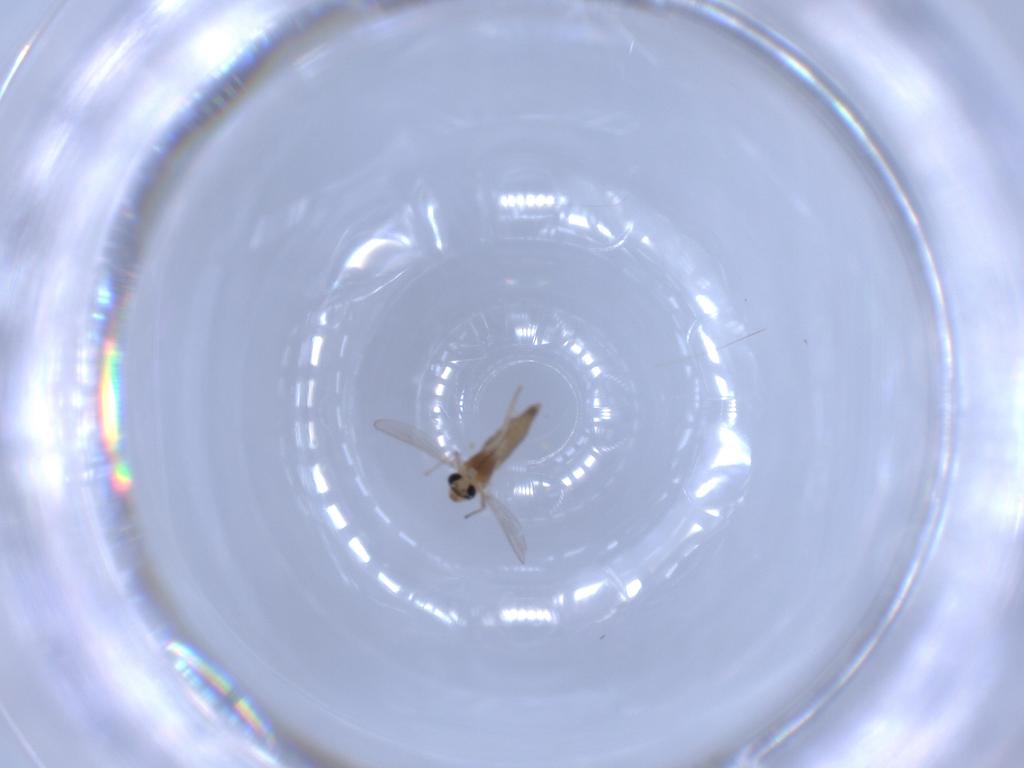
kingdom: Animalia
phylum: Arthropoda
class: Insecta
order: Diptera
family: Chironomidae
